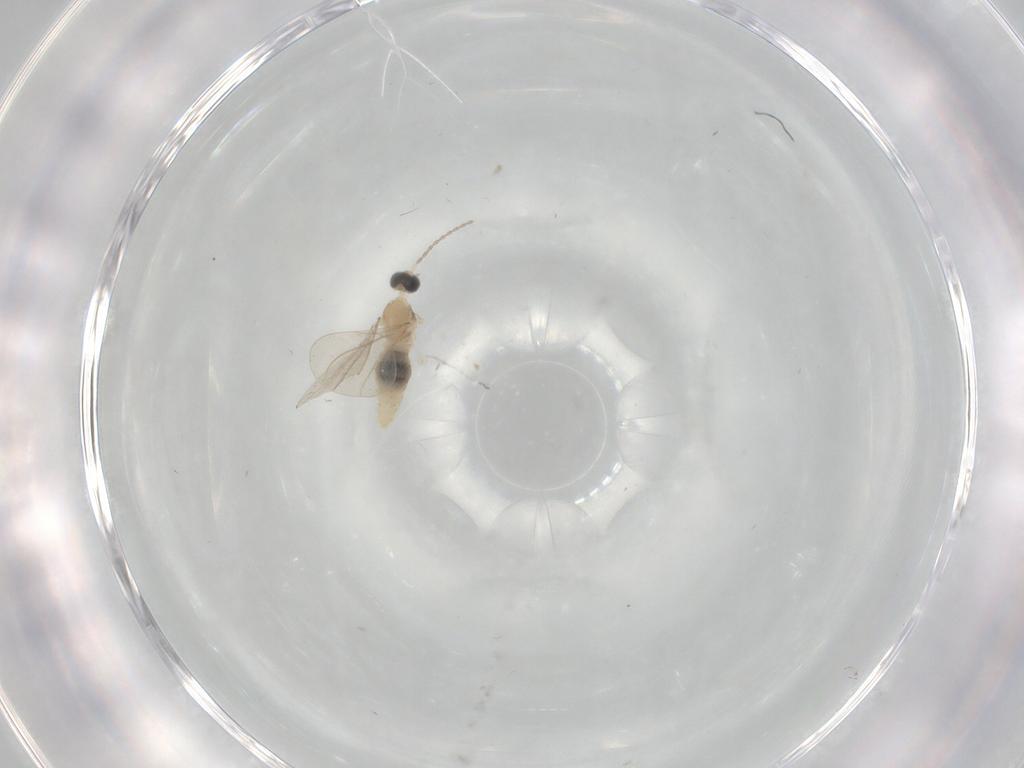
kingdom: Animalia
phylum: Arthropoda
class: Insecta
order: Diptera
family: Cecidomyiidae
